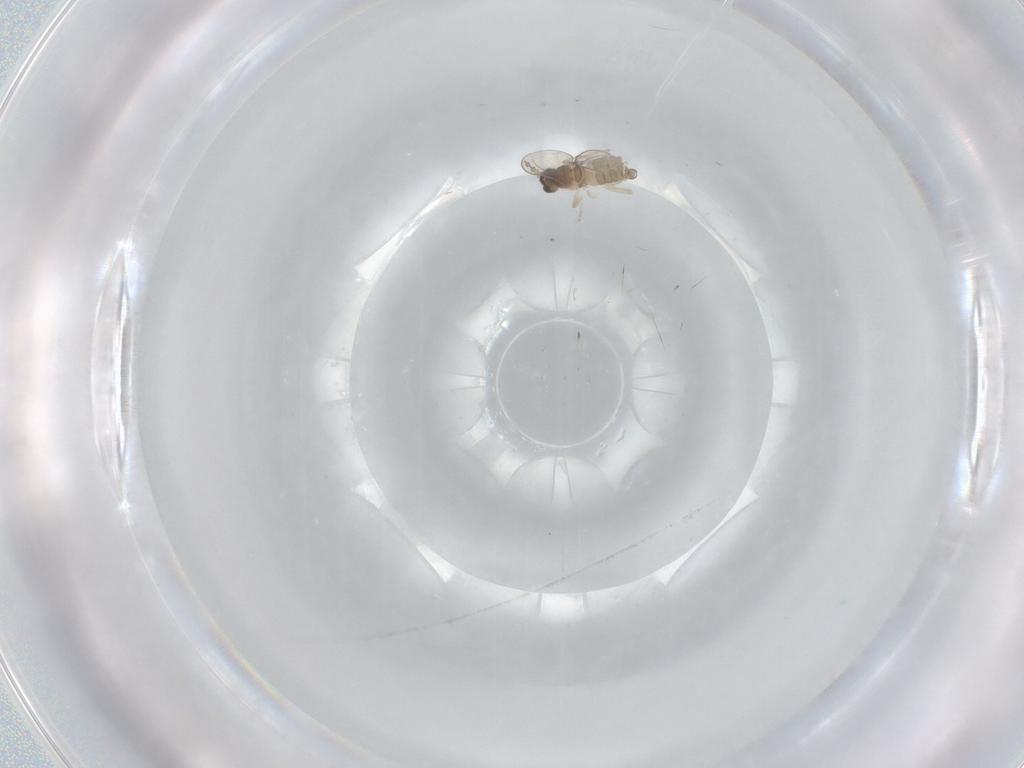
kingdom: Animalia
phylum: Arthropoda
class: Insecta
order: Diptera
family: Cecidomyiidae
